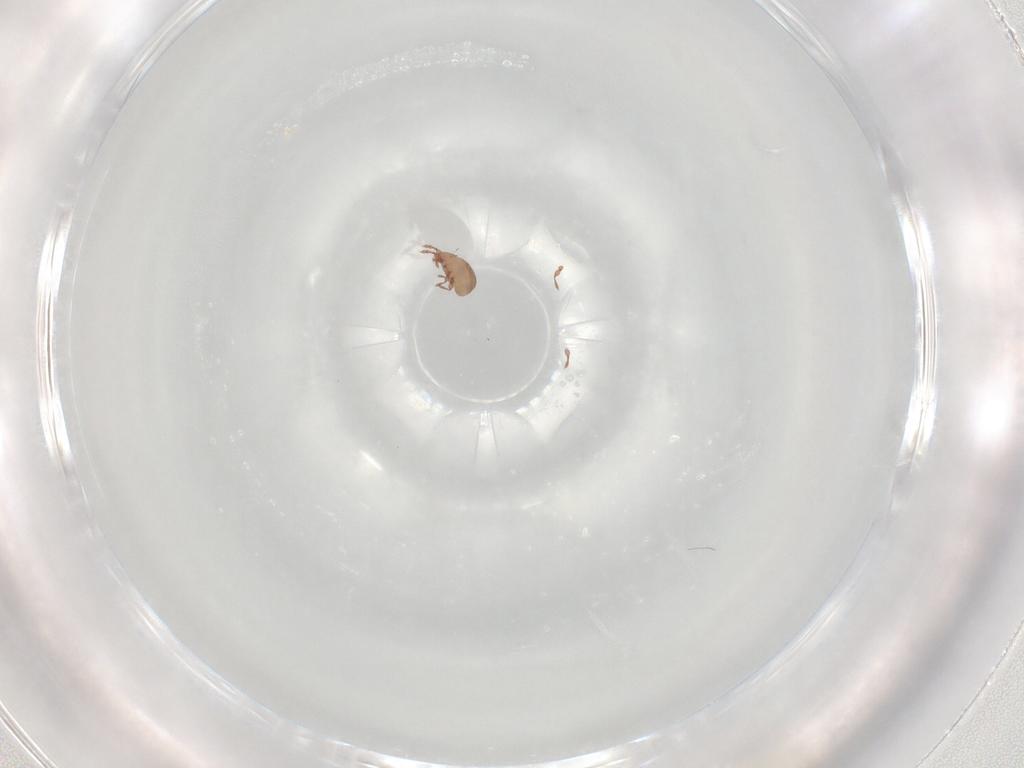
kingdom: Animalia
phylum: Arthropoda
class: Arachnida
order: Sarcoptiformes
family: Eremaeidae
